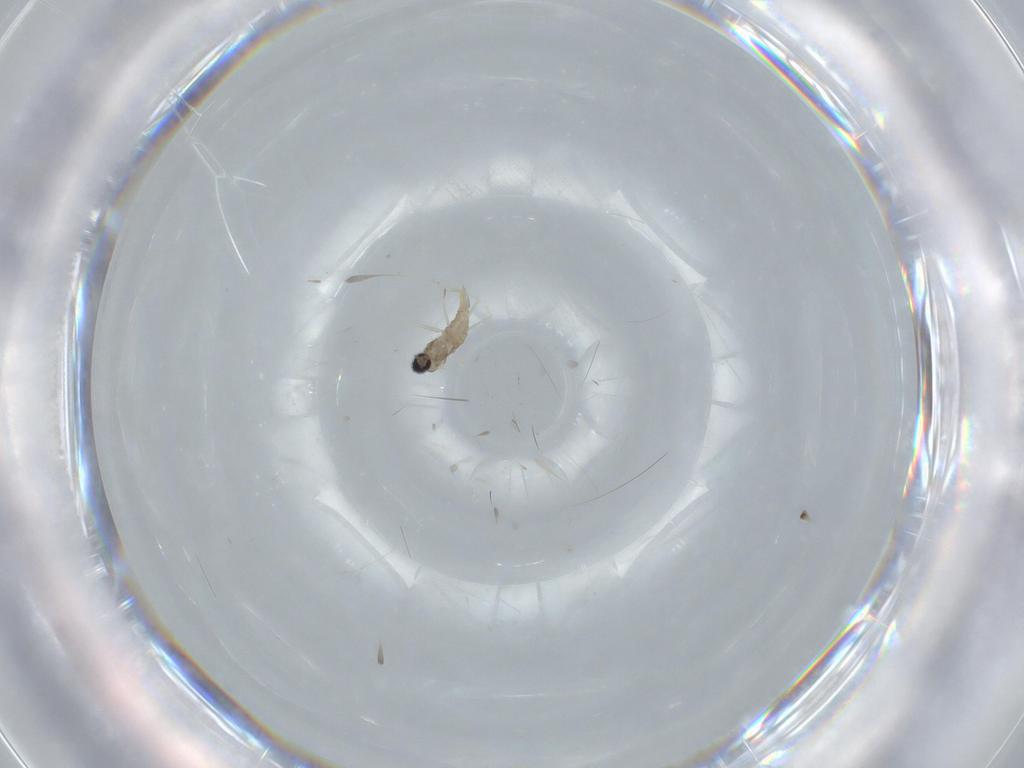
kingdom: Animalia
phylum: Arthropoda
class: Insecta
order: Diptera
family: Cecidomyiidae
